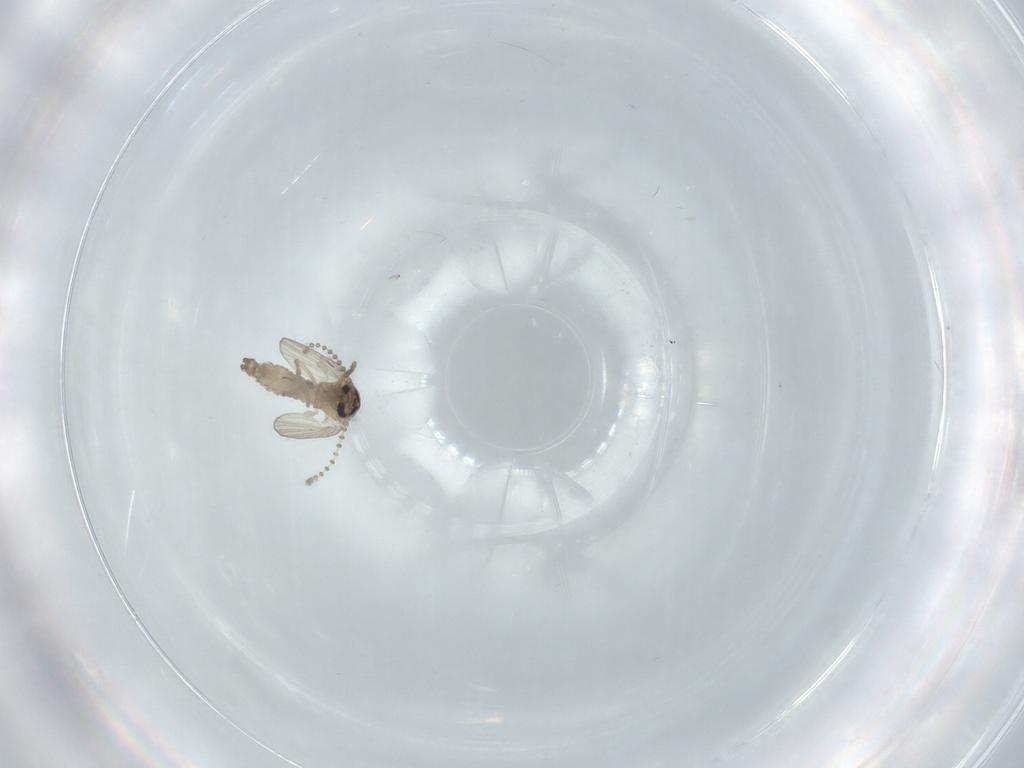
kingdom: Animalia
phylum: Arthropoda
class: Insecta
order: Diptera
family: Psychodidae
